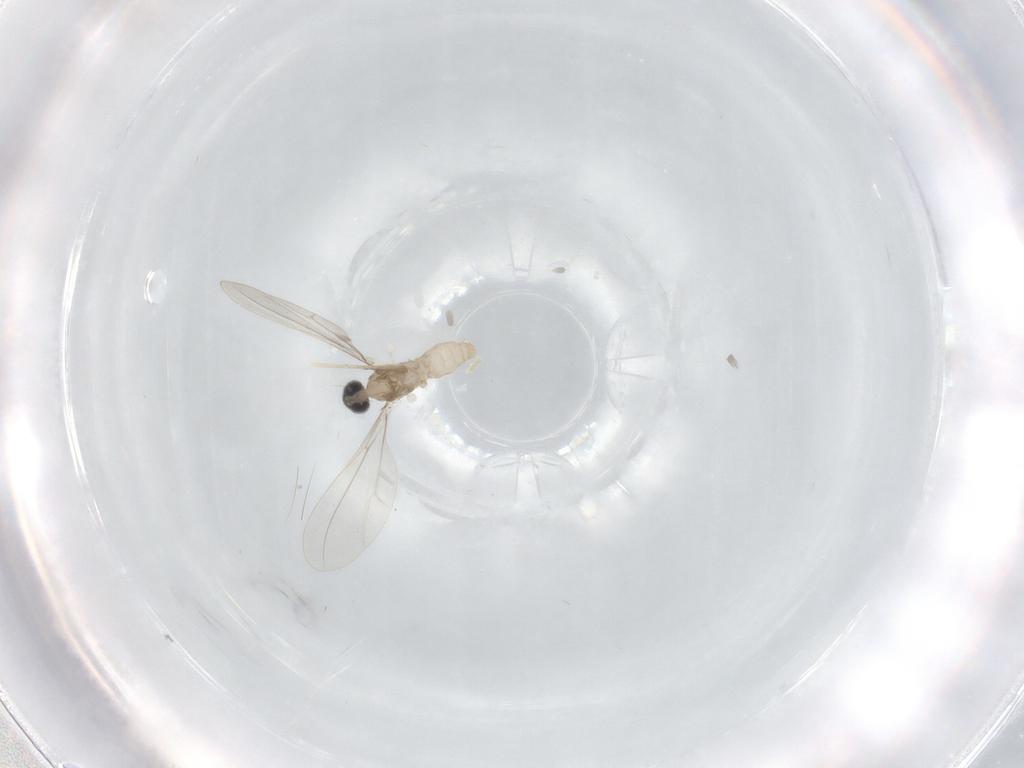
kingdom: Animalia
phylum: Arthropoda
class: Insecta
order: Diptera
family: Cecidomyiidae
